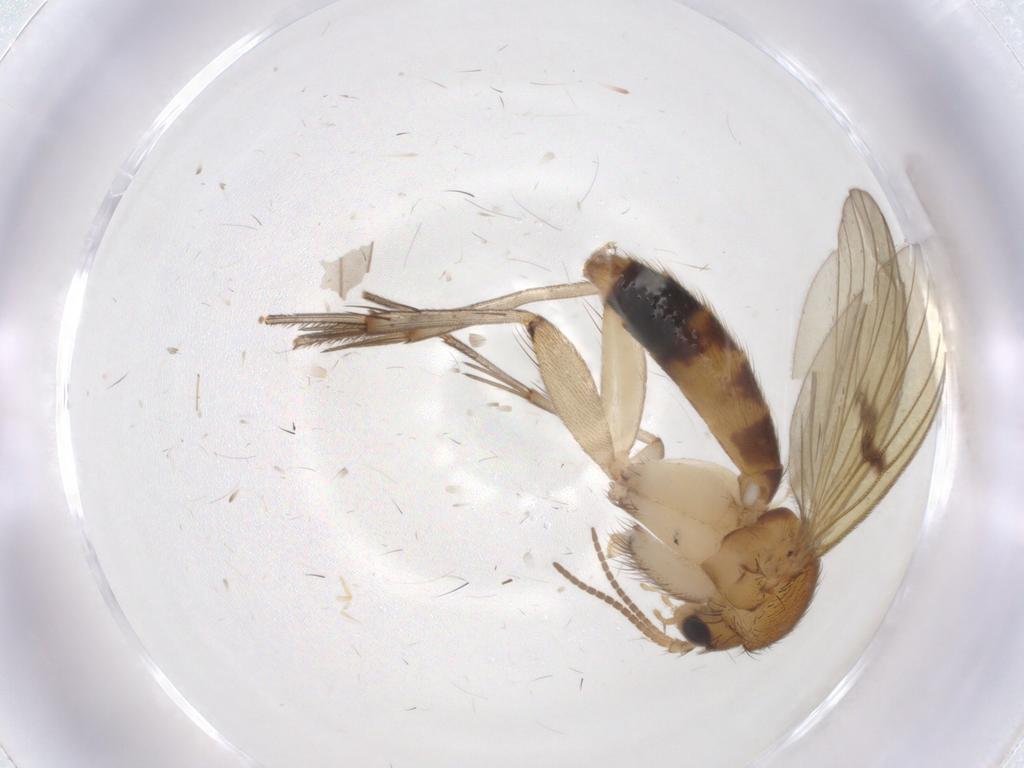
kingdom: Animalia
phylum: Arthropoda
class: Insecta
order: Diptera
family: Mycetophilidae
